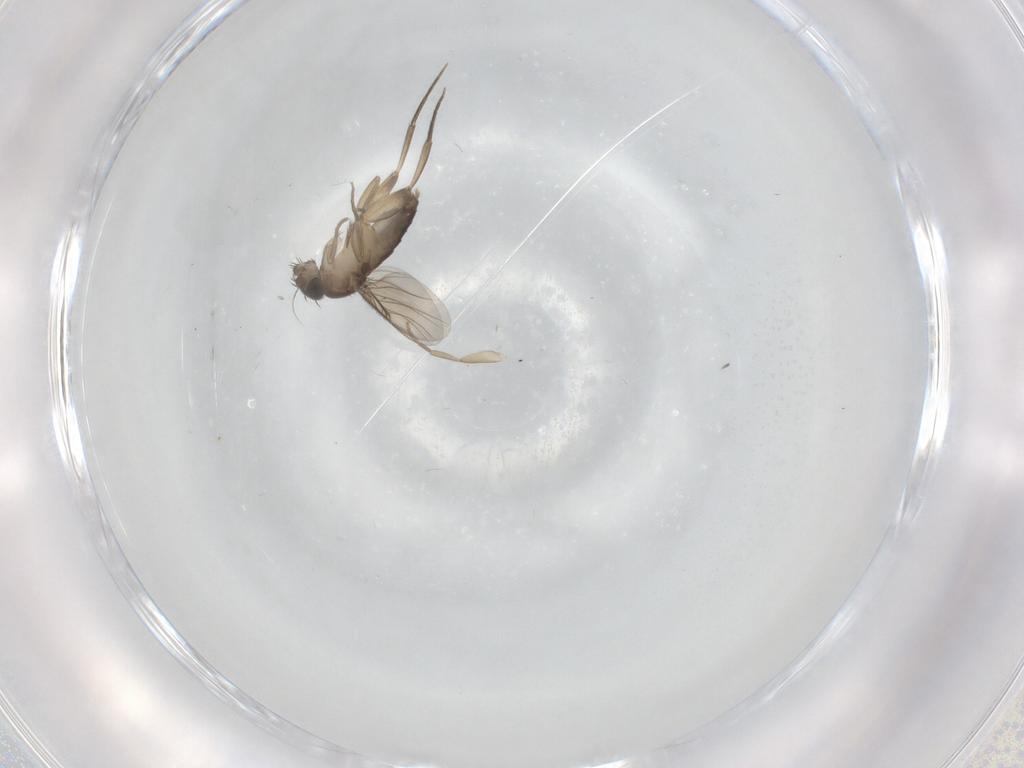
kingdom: Animalia
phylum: Arthropoda
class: Insecta
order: Diptera
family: Phoridae
